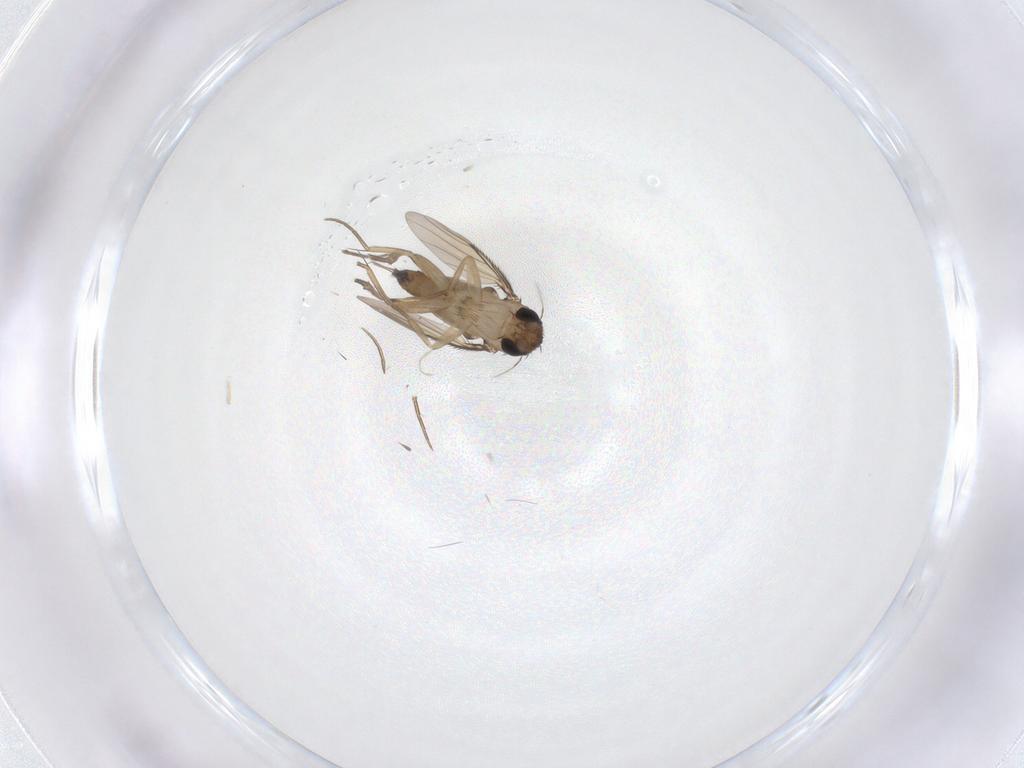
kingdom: Animalia
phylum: Arthropoda
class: Insecta
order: Diptera
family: Phoridae
